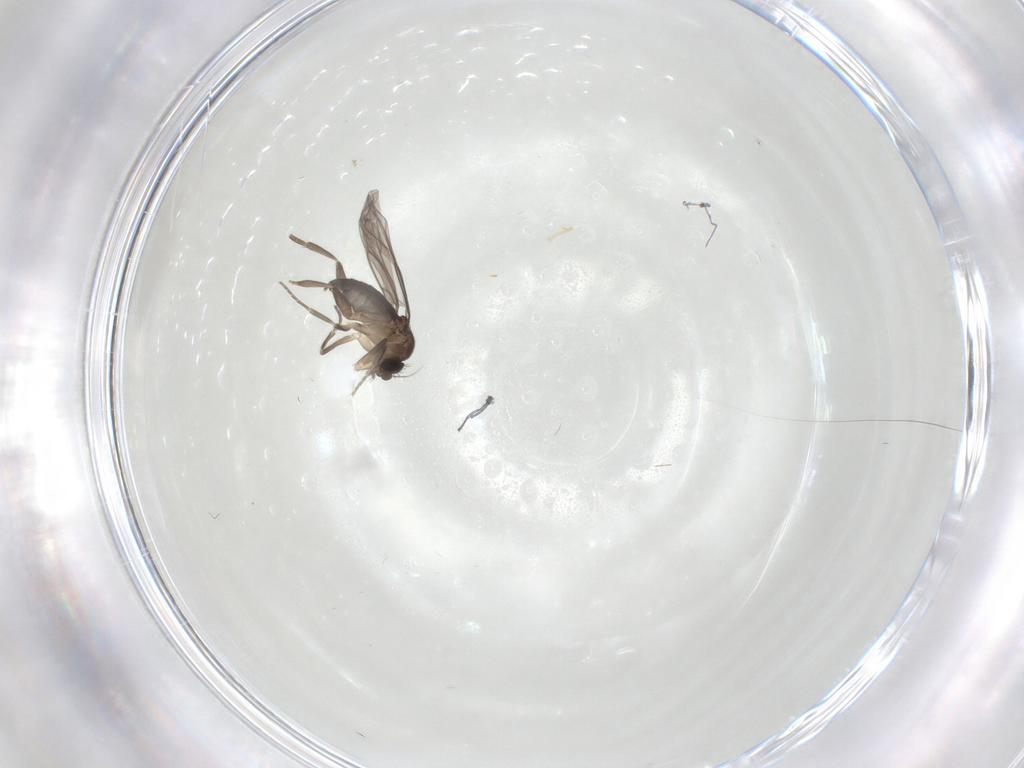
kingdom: Animalia
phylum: Arthropoda
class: Insecta
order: Diptera
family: Phoridae
